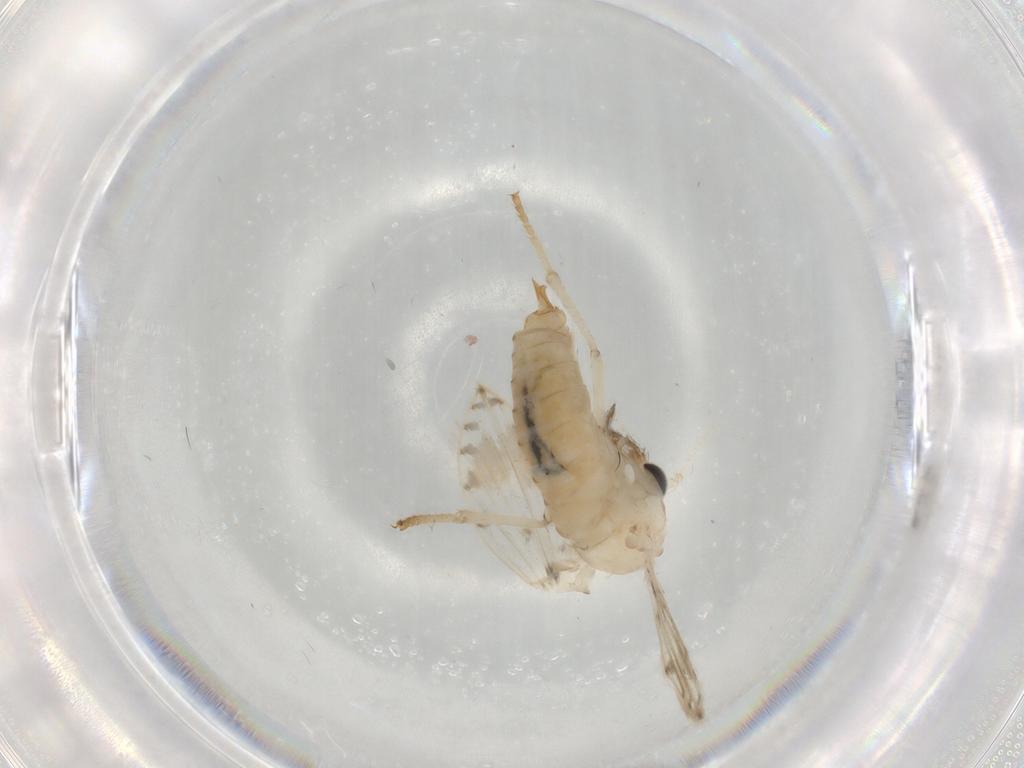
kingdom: Animalia
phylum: Arthropoda
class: Insecta
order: Diptera
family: Chironomidae
